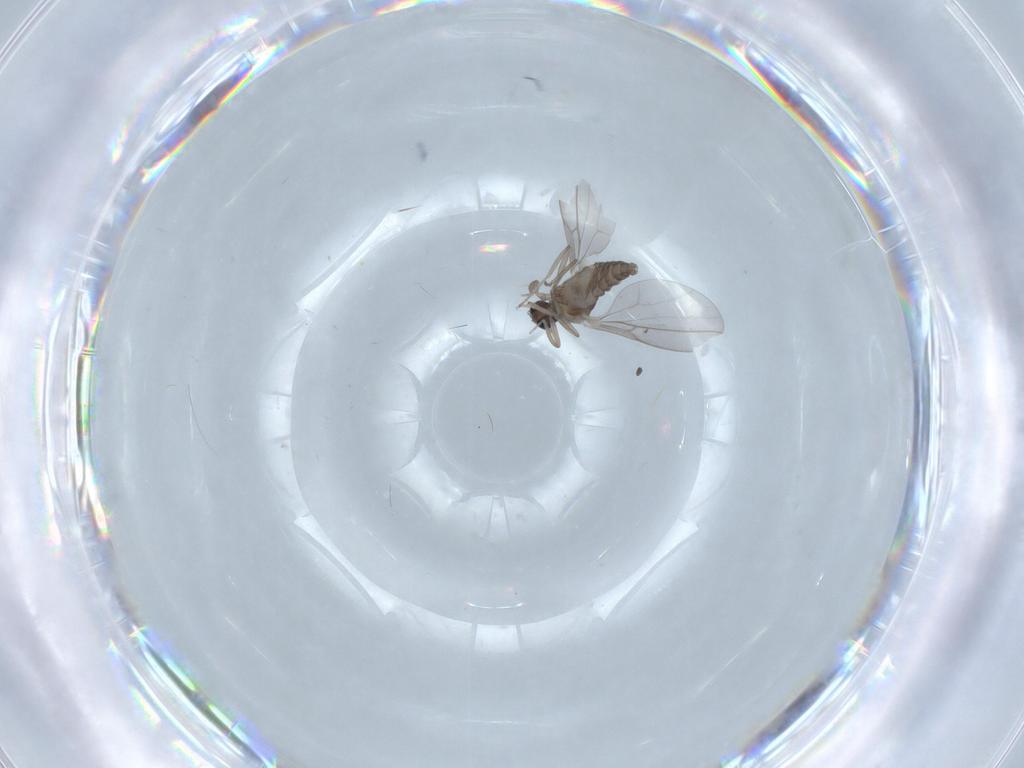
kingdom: Animalia
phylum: Arthropoda
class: Insecta
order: Diptera
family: Cecidomyiidae
